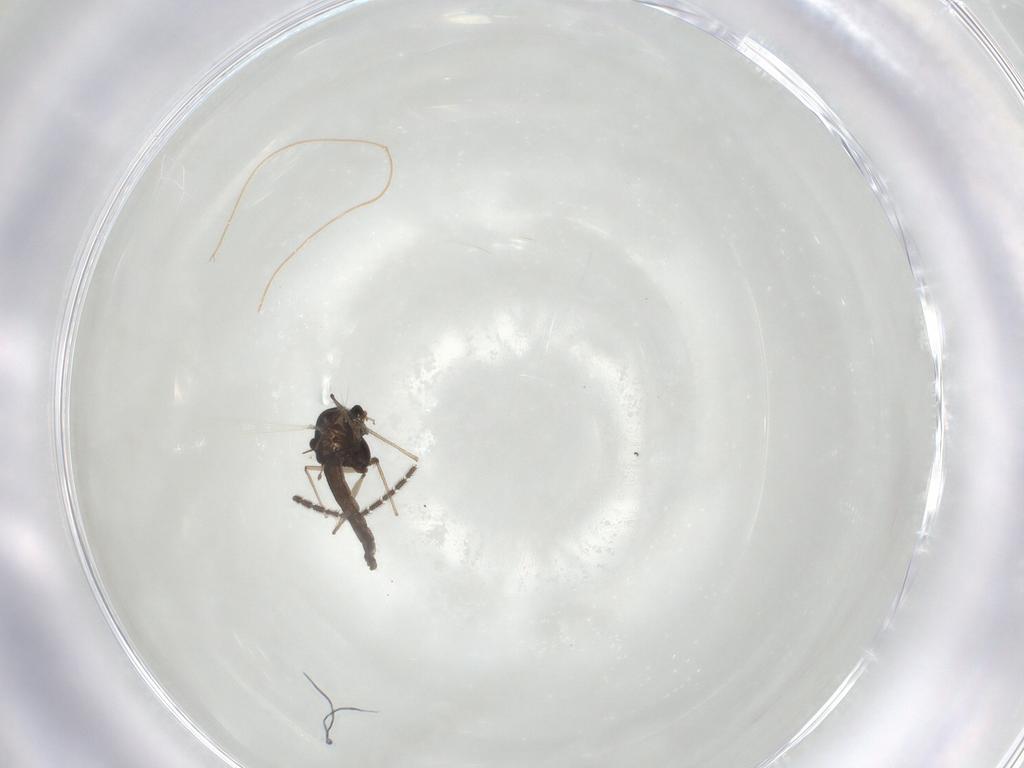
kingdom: Animalia
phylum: Arthropoda
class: Insecta
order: Diptera
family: Chironomidae
